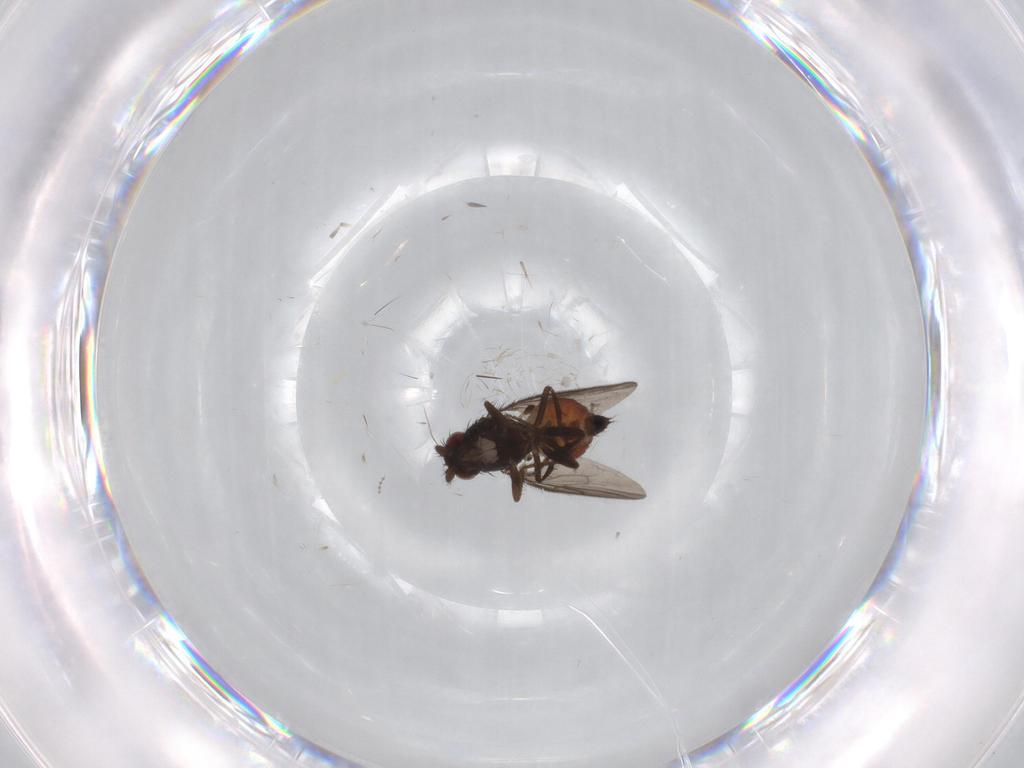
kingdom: Animalia
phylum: Arthropoda
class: Insecta
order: Diptera
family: Sphaeroceridae
